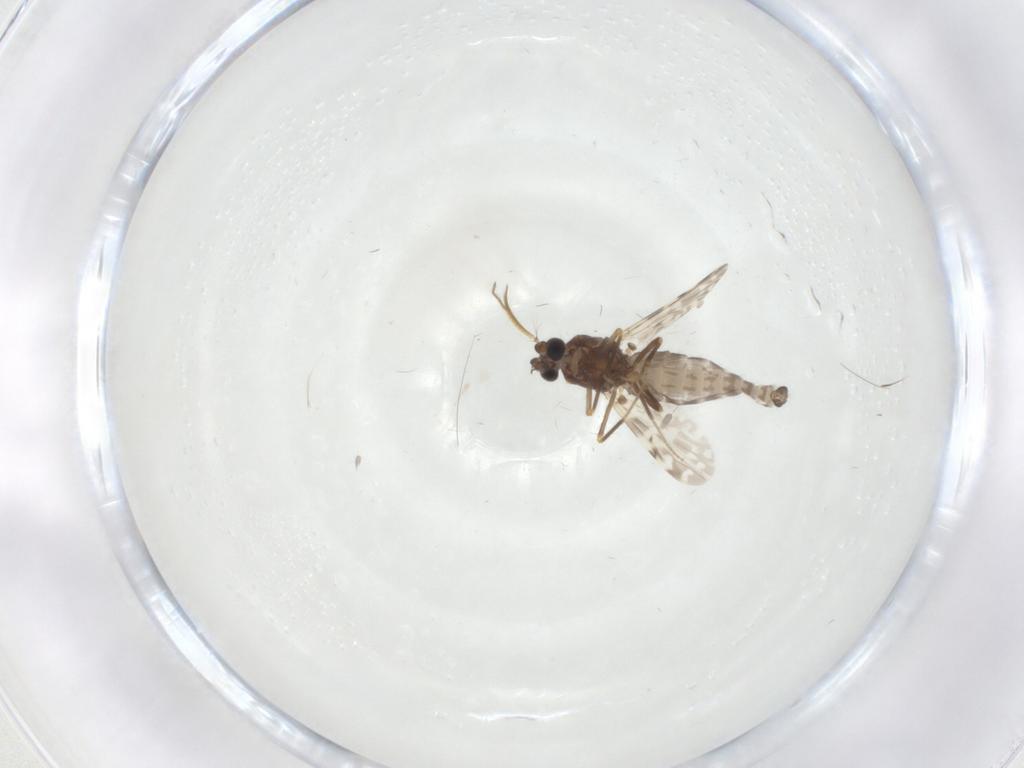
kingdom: Animalia
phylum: Arthropoda
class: Insecta
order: Diptera
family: Ceratopogonidae
